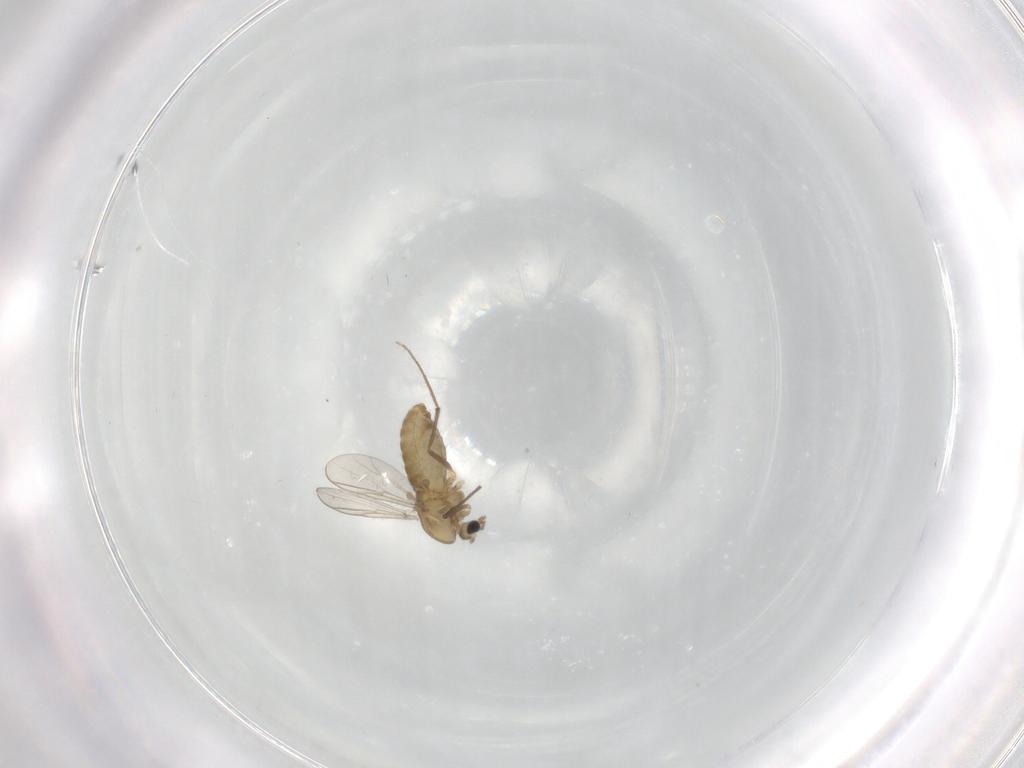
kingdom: Animalia
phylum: Arthropoda
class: Insecta
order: Diptera
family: Chironomidae
